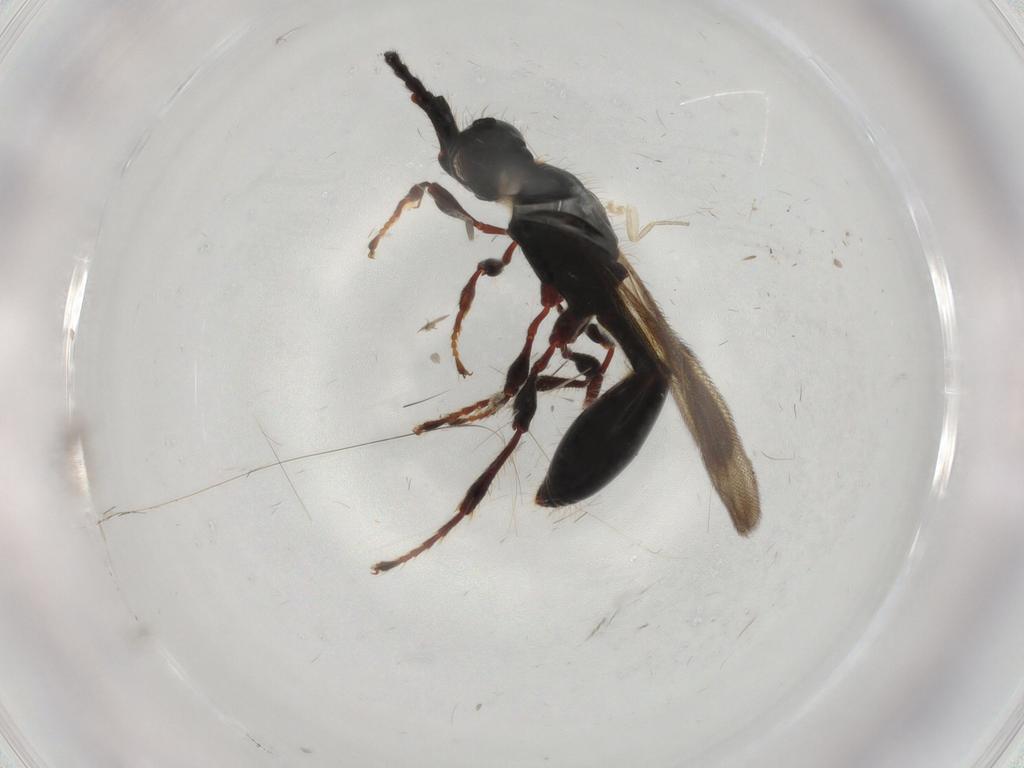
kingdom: Animalia
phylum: Arthropoda
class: Insecta
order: Hymenoptera
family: Diapriidae
